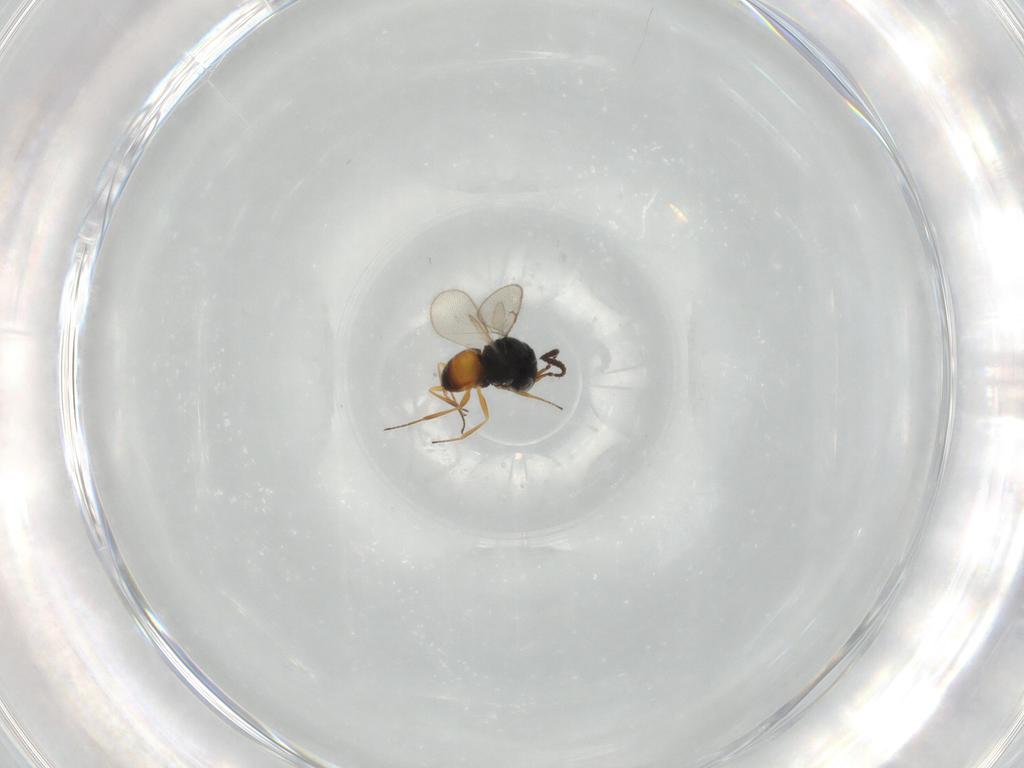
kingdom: Animalia
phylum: Arthropoda
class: Insecta
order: Hymenoptera
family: Scelionidae
